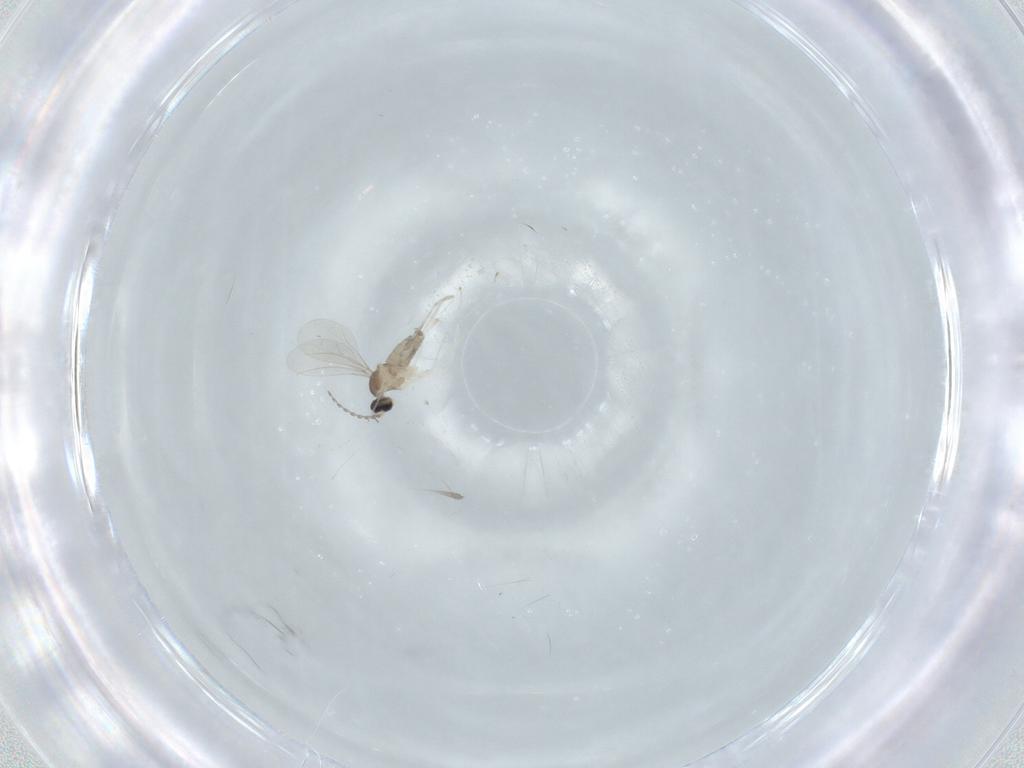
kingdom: Animalia
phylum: Arthropoda
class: Insecta
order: Diptera
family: Cecidomyiidae
